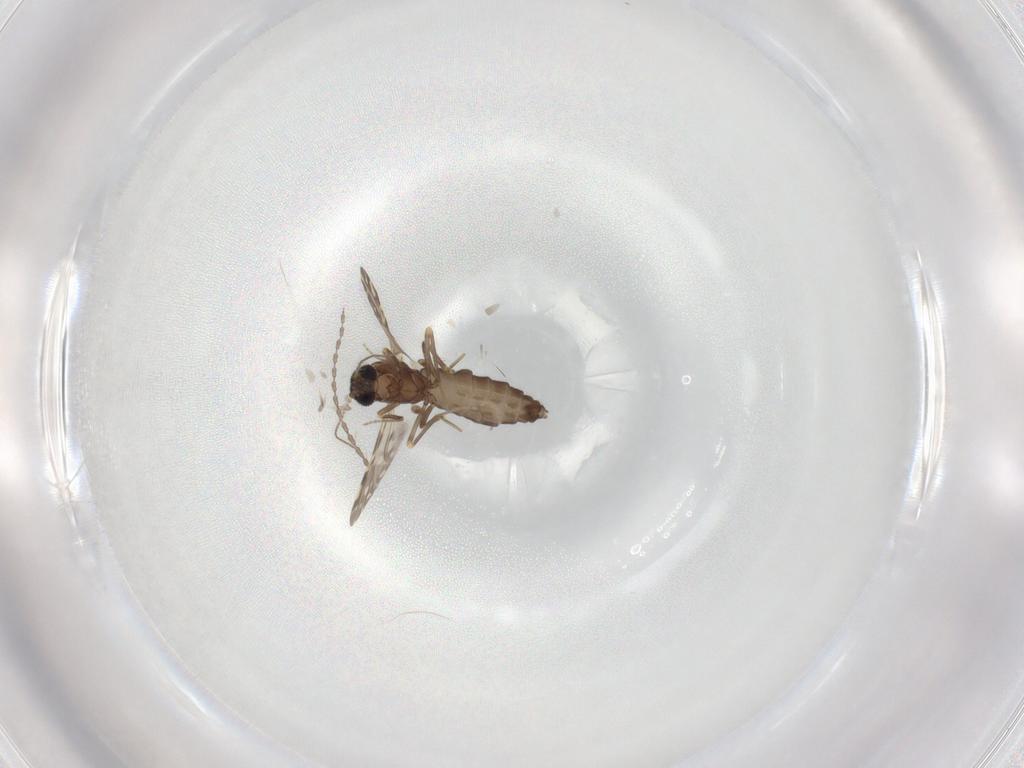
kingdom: Animalia
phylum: Arthropoda
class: Insecta
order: Diptera
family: Ceratopogonidae
